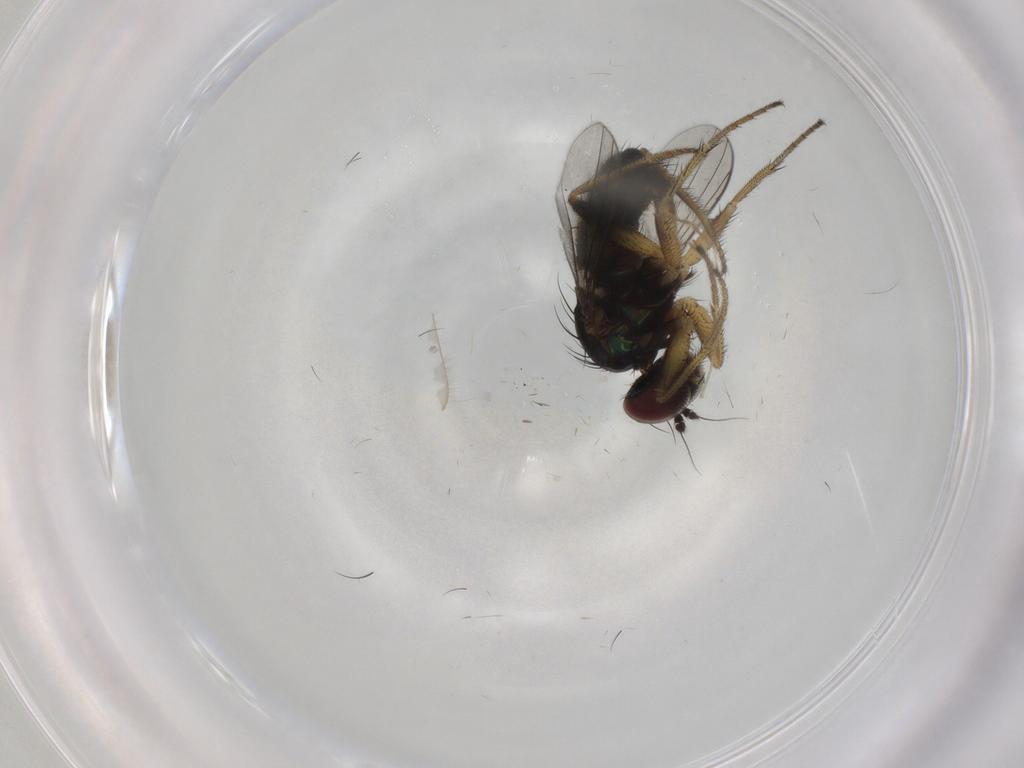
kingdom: Animalia
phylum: Arthropoda
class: Insecta
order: Diptera
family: Dolichopodidae
